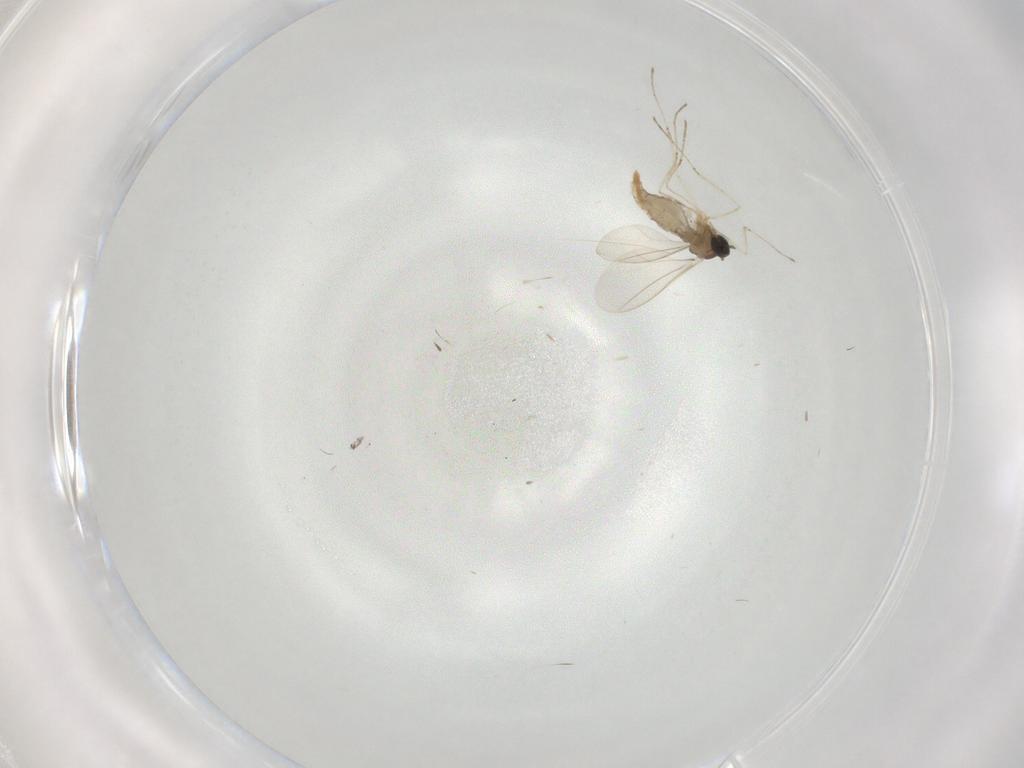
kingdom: Animalia
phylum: Arthropoda
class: Insecta
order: Diptera
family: Cecidomyiidae
